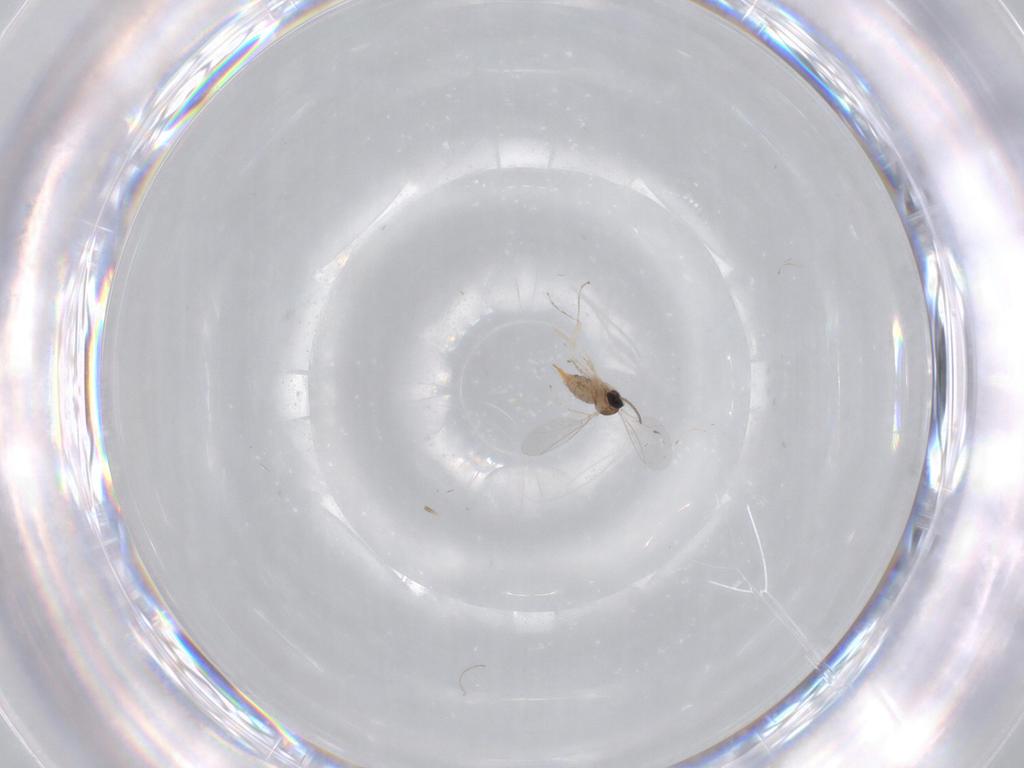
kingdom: Animalia
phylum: Arthropoda
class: Insecta
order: Diptera
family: Cecidomyiidae
